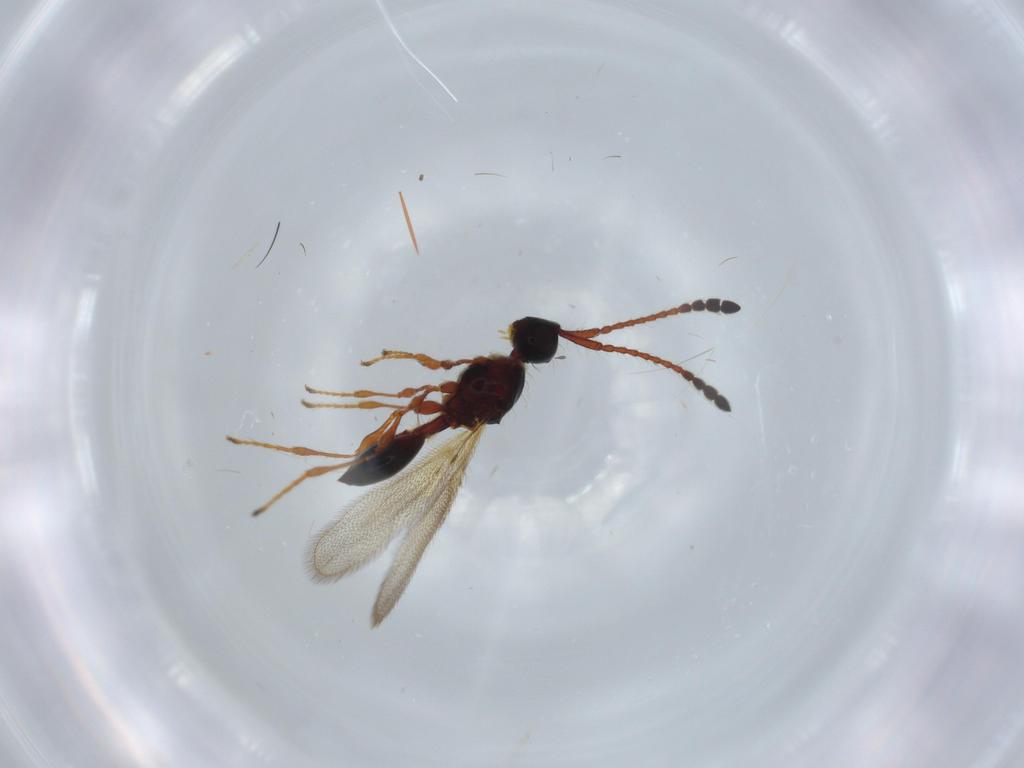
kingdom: Animalia
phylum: Arthropoda
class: Insecta
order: Hymenoptera
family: Diapriidae
